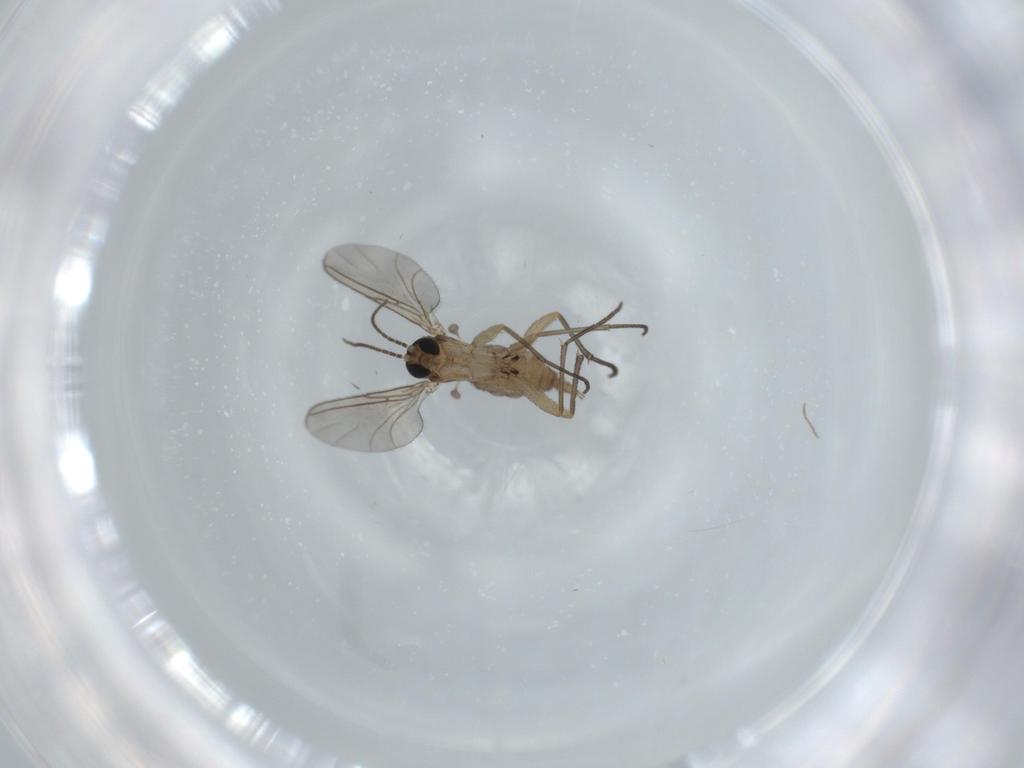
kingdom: Animalia
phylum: Arthropoda
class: Insecta
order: Diptera
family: Sciaridae
